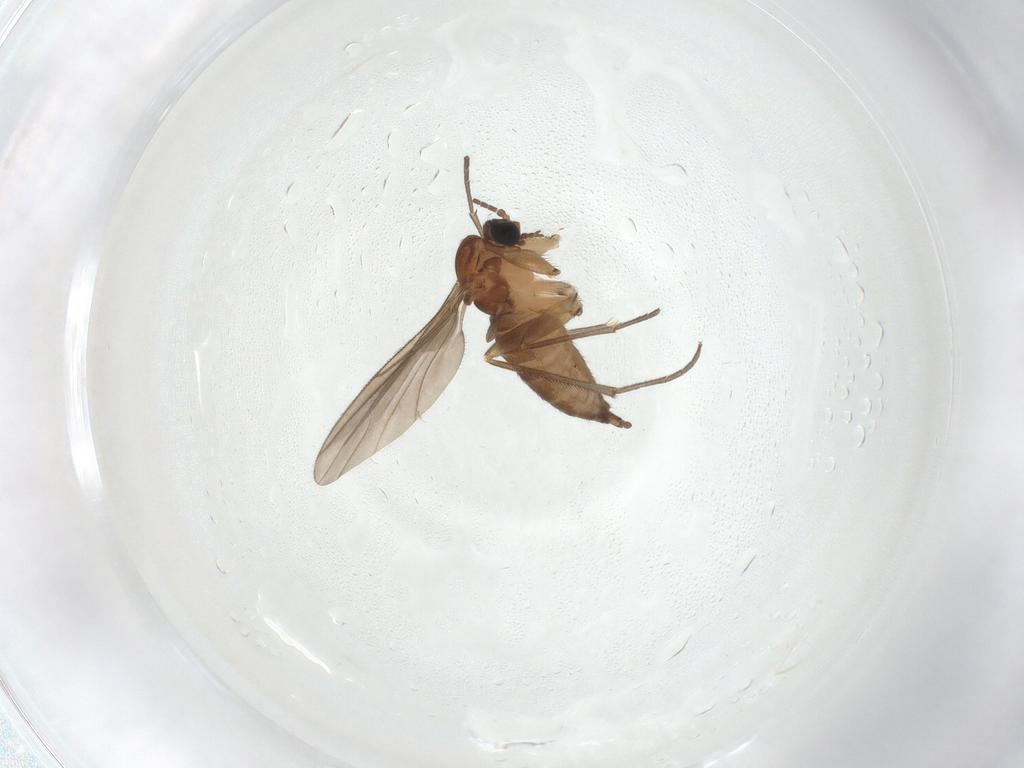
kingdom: Animalia
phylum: Arthropoda
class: Insecta
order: Diptera
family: Sciaridae
